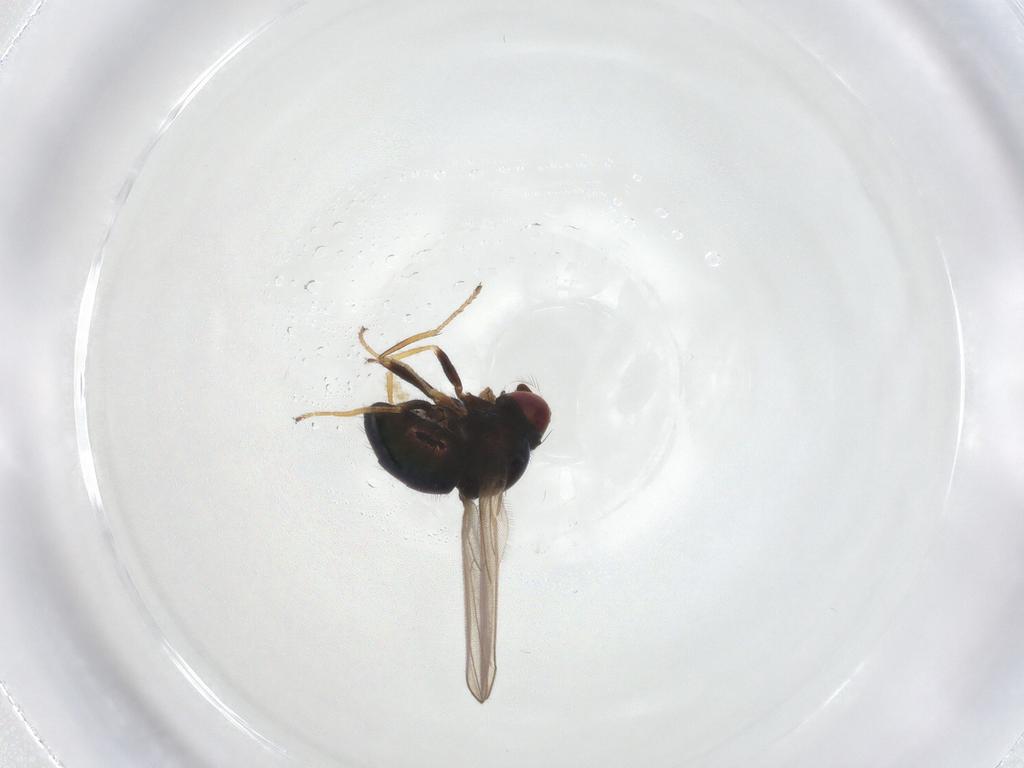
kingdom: Animalia
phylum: Arthropoda
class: Insecta
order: Diptera
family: Ephydridae
